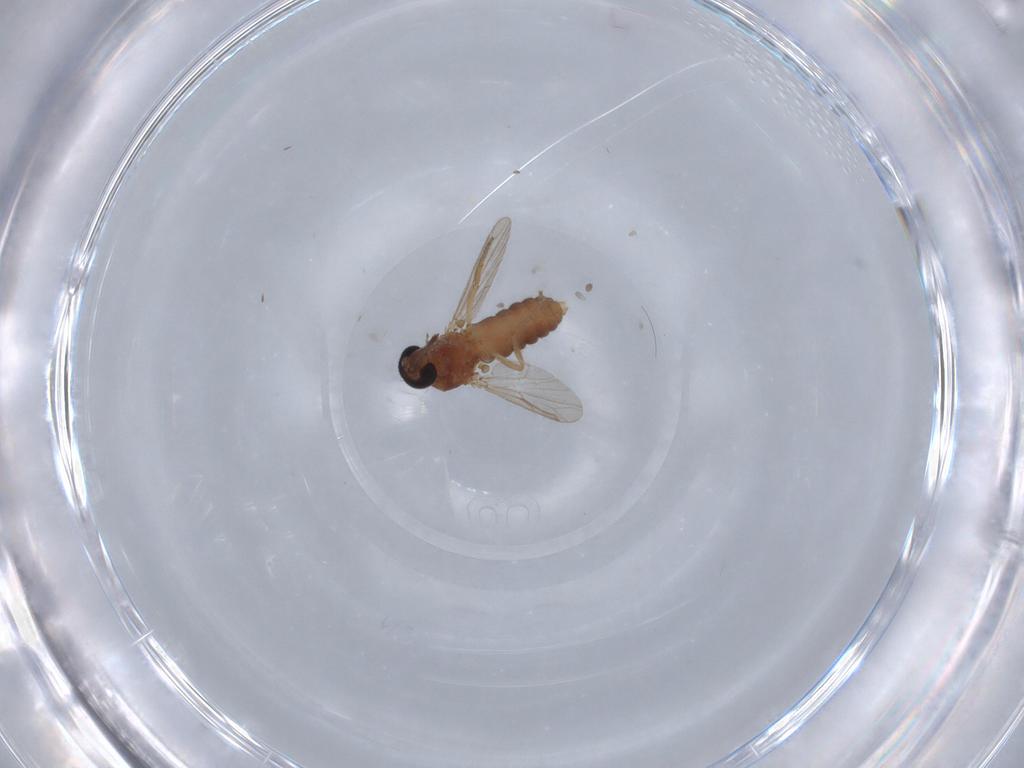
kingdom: Animalia
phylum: Arthropoda
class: Insecta
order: Diptera
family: Ceratopogonidae
